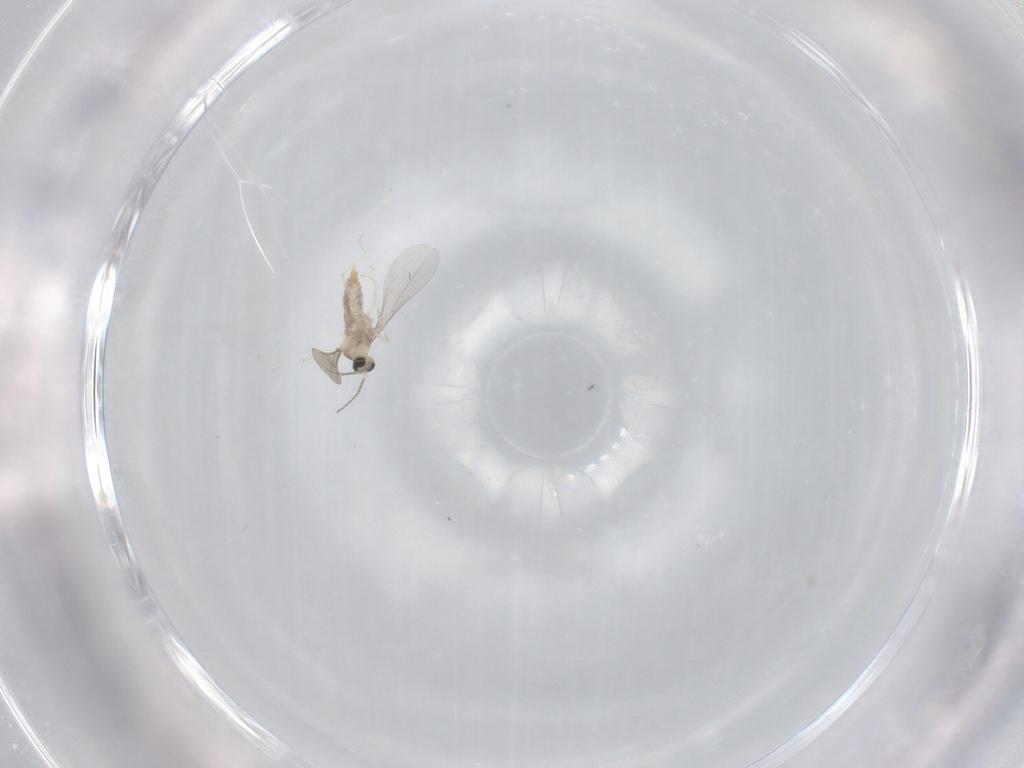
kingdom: Animalia
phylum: Arthropoda
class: Insecta
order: Diptera
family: Cecidomyiidae
